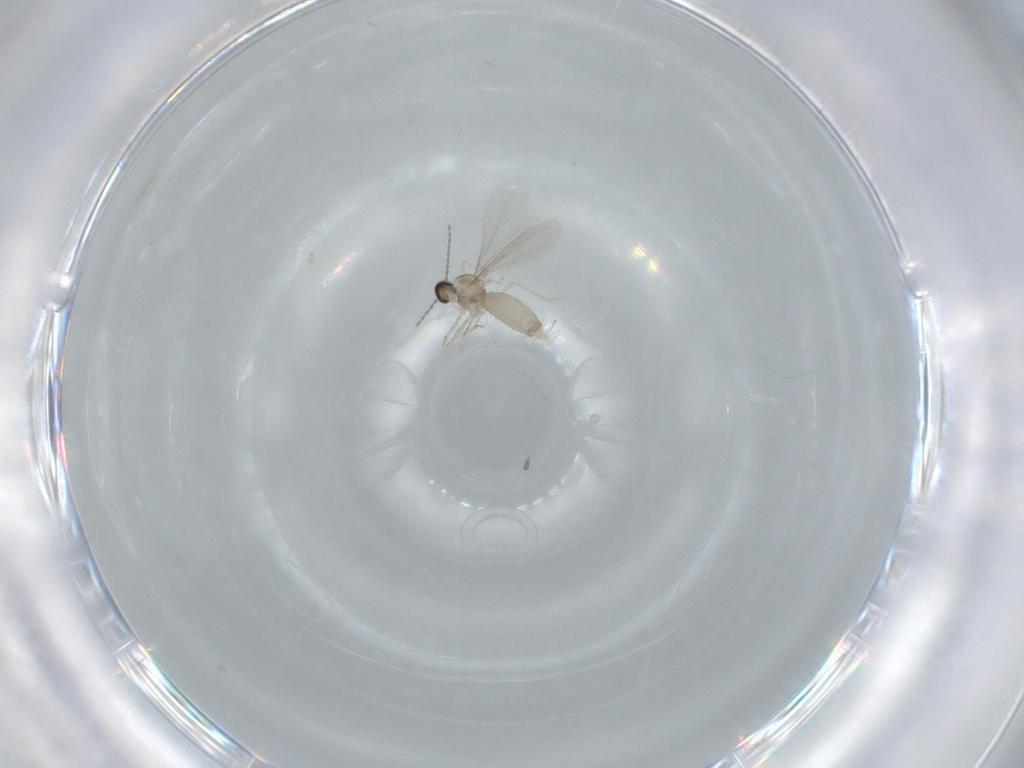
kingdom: Animalia
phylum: Arthropoda
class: Insecta
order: Diptera
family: Cecidomyiidae
